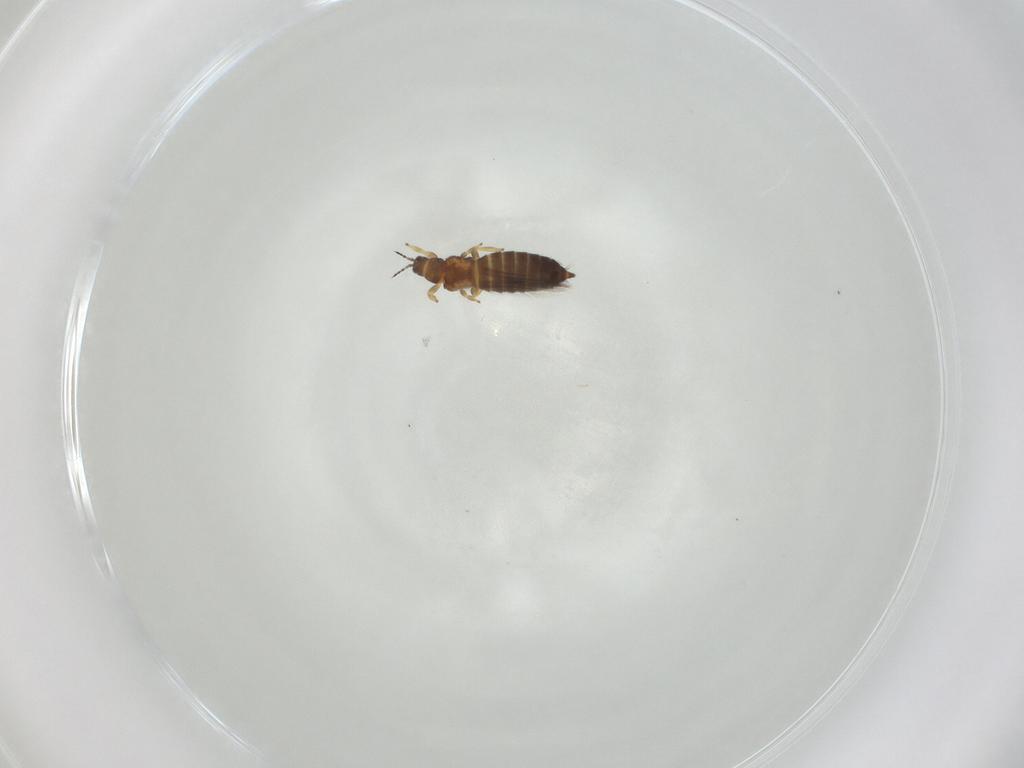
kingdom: Animalia
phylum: Arthropoda
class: Insecta
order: Thysanoptera
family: Thripidae
